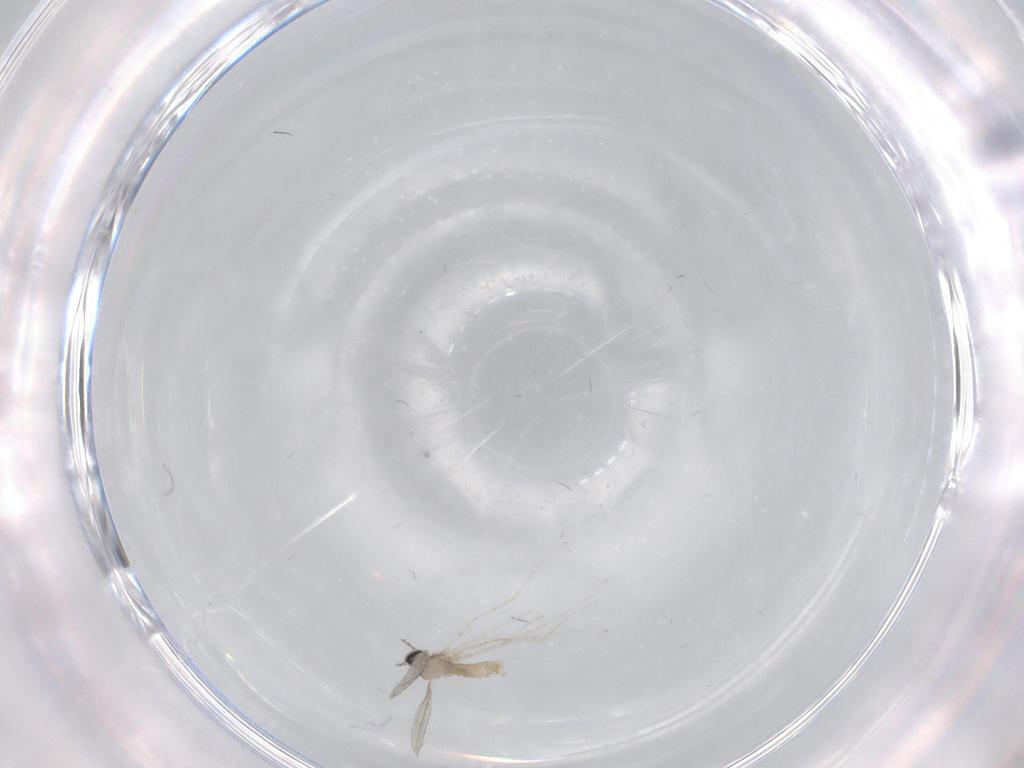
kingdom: Animalia
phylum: Arthropoda
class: Insecta
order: Diptera
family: Cecidomyiidae
